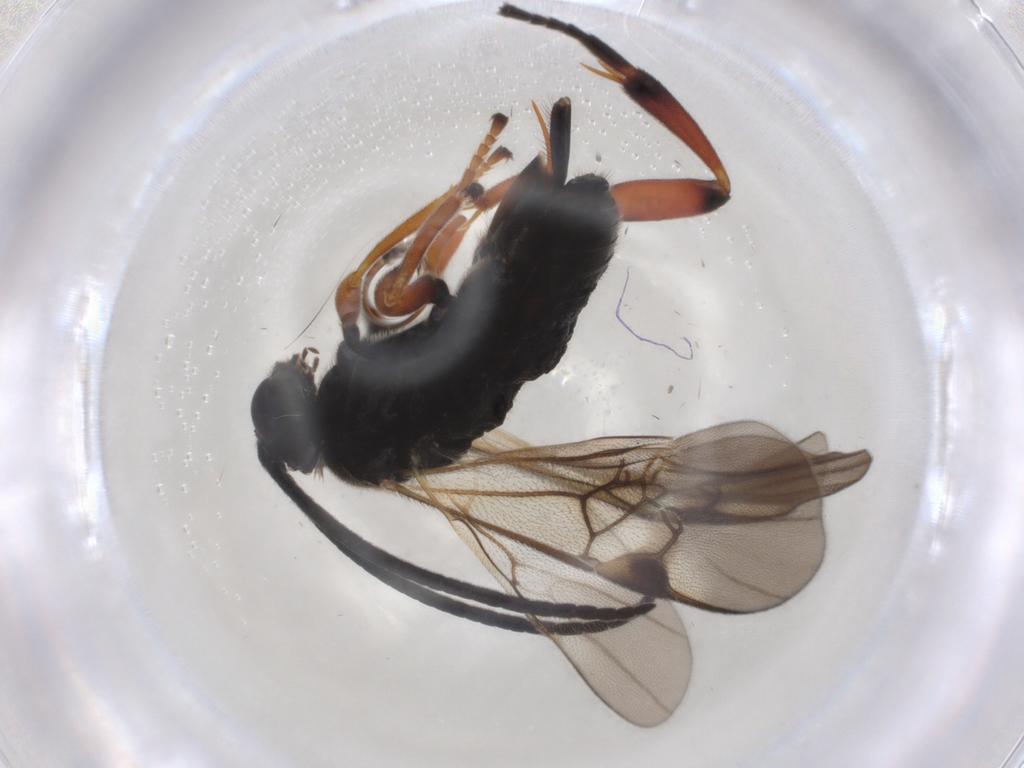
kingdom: Animalia
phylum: Arthropoda
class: Insecta
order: Hymenoptera
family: Braconidae
